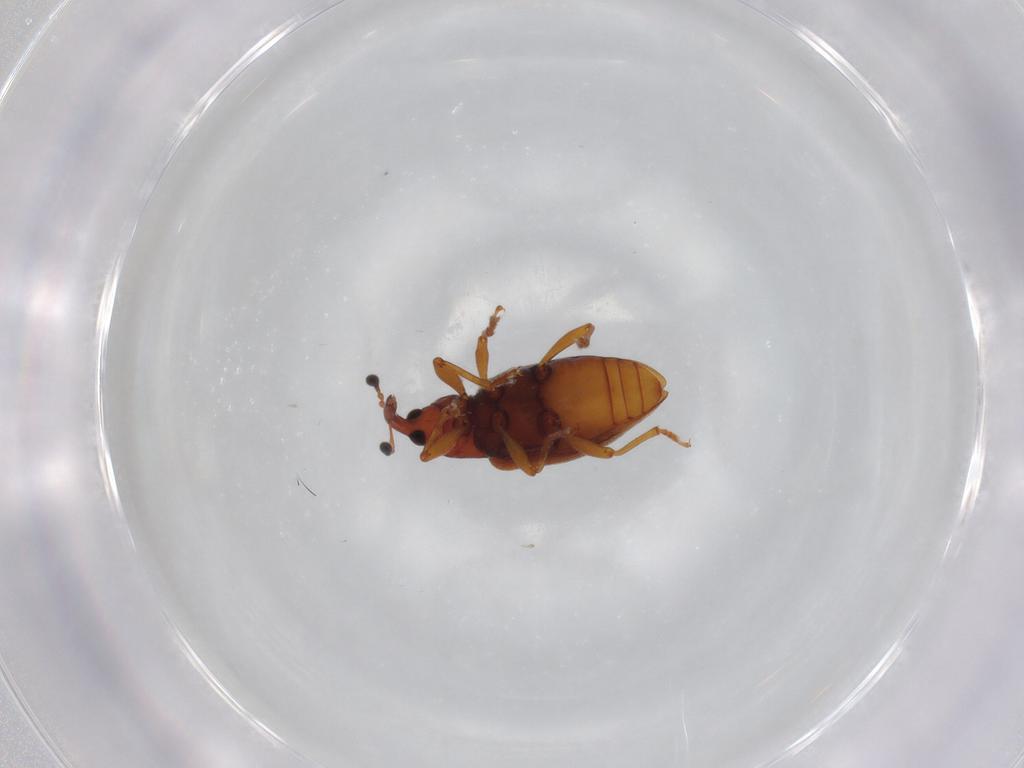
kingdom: Animalia
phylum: Arthropoda
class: Insecta
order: Coleoptera
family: Curculionidae
